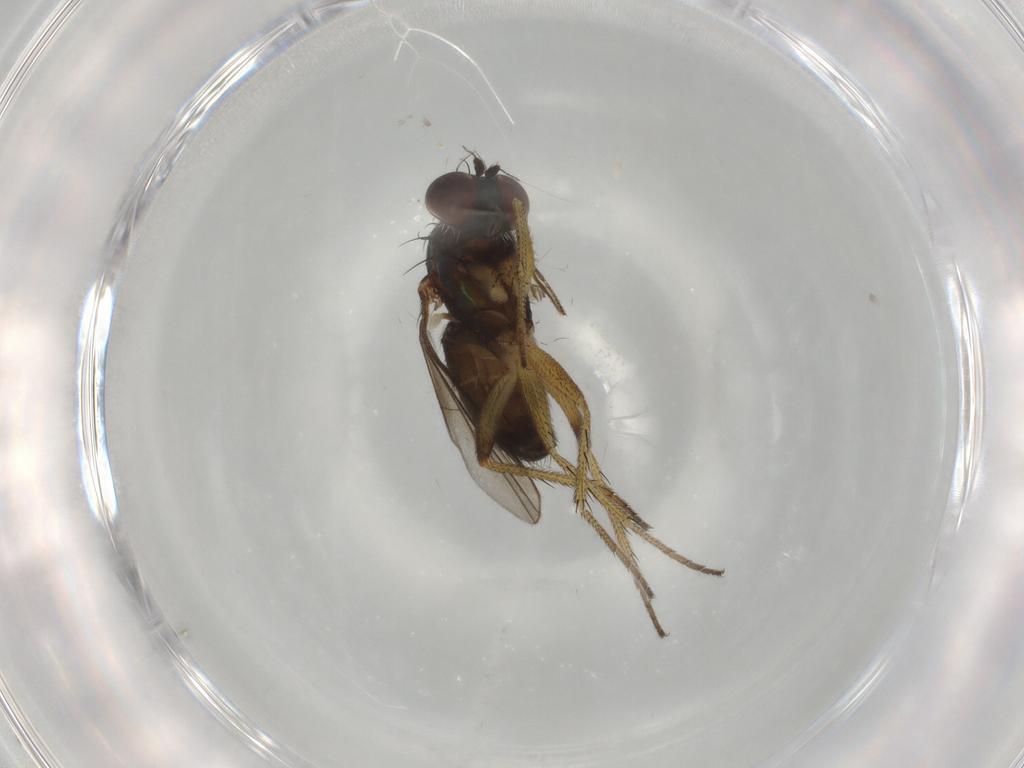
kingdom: Animalia
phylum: Arthropoda
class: Insecta
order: Diptera
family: Dolichopodidae
